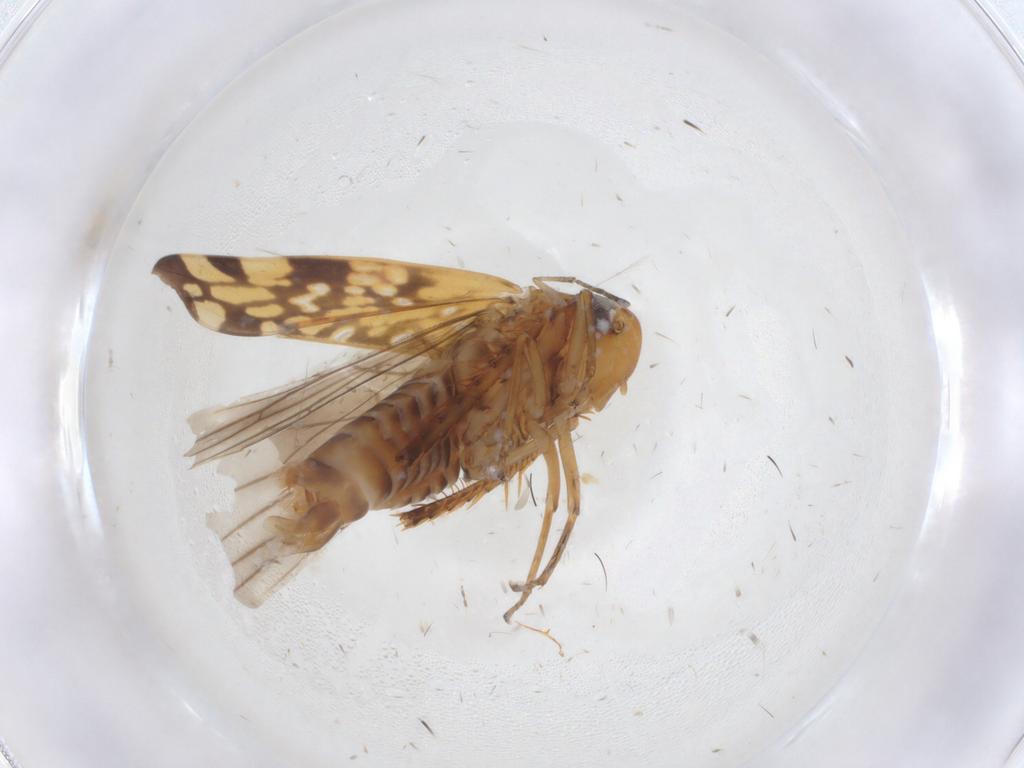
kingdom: Animalia
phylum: Arthropoda
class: Insecta
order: Hemiptera
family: Cicadellidae
